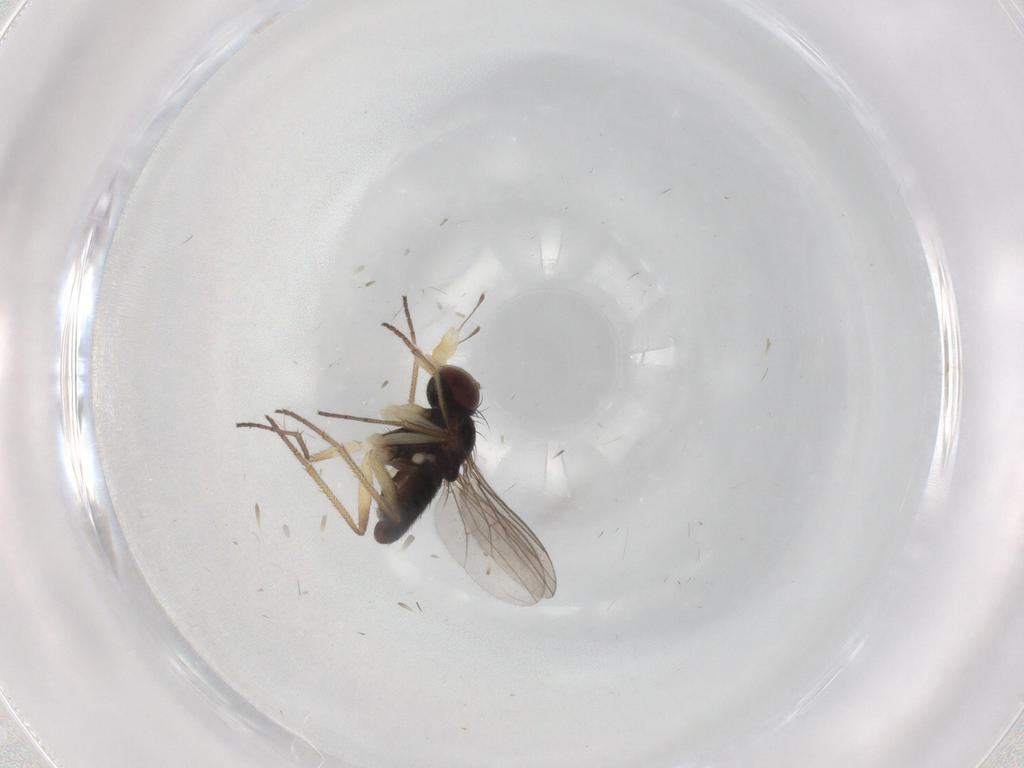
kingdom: Animalia
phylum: Arthropoda
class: Insecta
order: Diptera
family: Dolichopodidae
